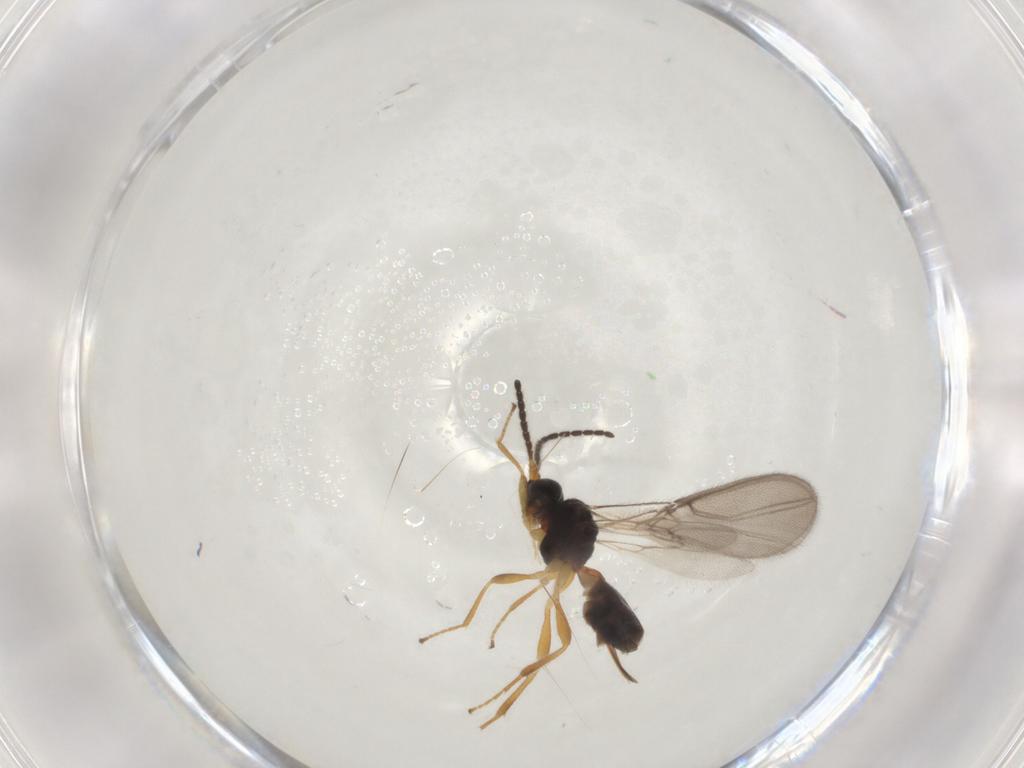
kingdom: Animalia
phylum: Arthropoda
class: Insecta
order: Hymenoptera
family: Braconidae
